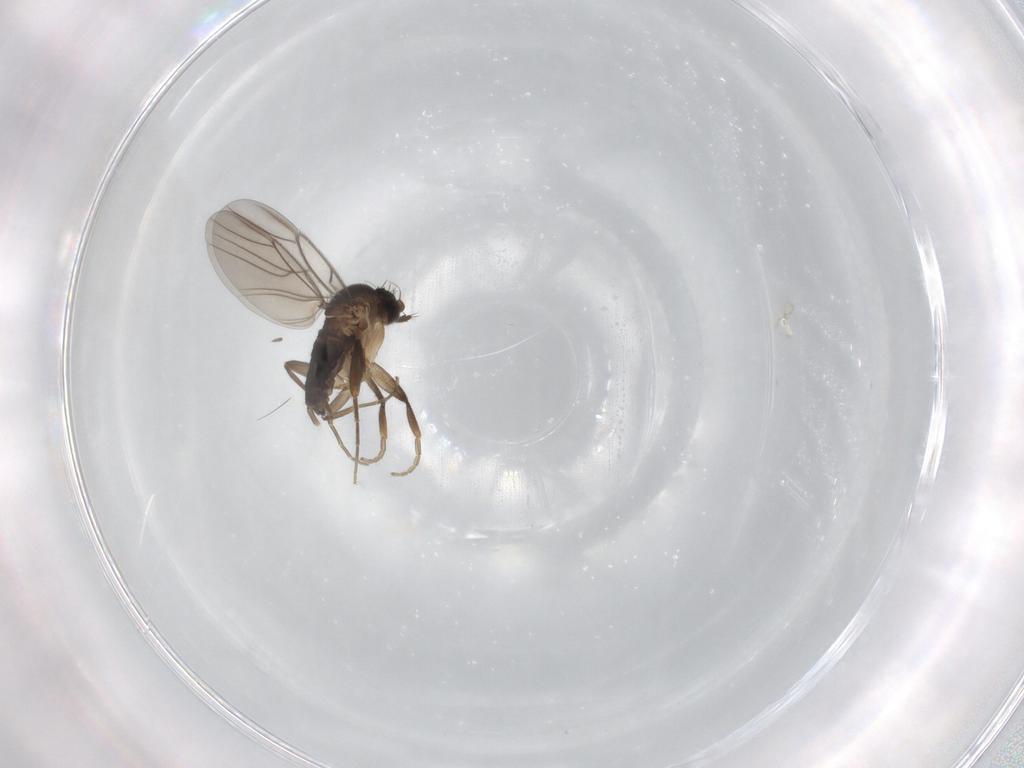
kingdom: Animalia
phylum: Arthropoda
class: Insecta
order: Diptera
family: Phoridae
